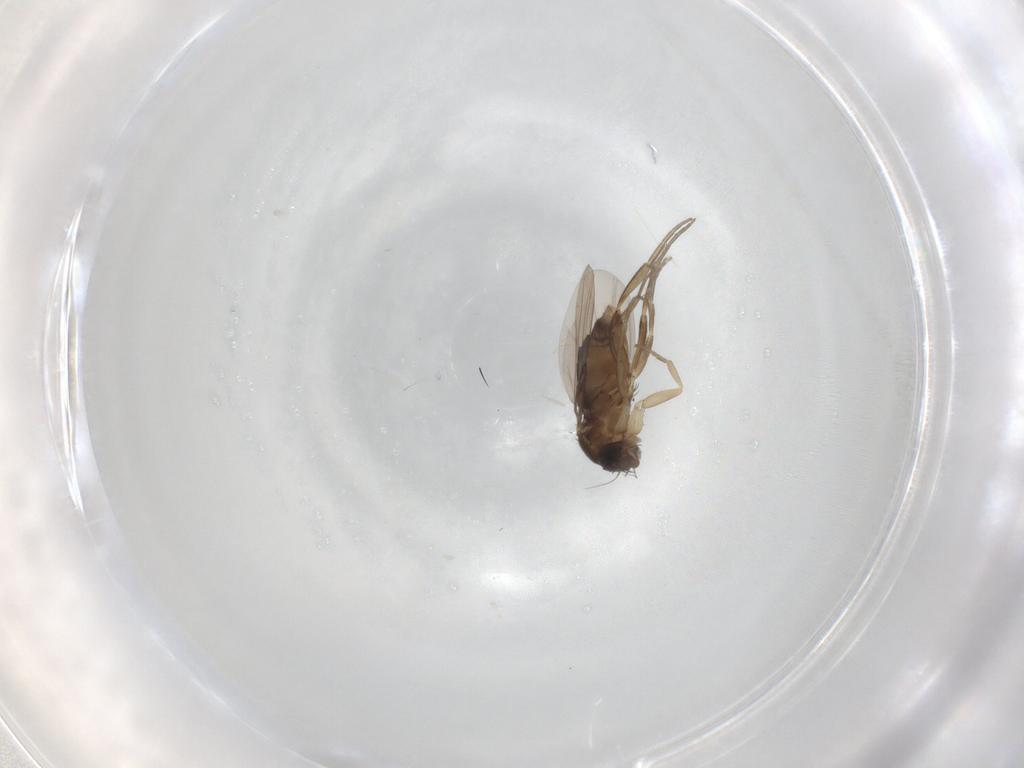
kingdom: Animalia
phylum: Arthropoda
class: Insecta
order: Diptera
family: Phoridae
